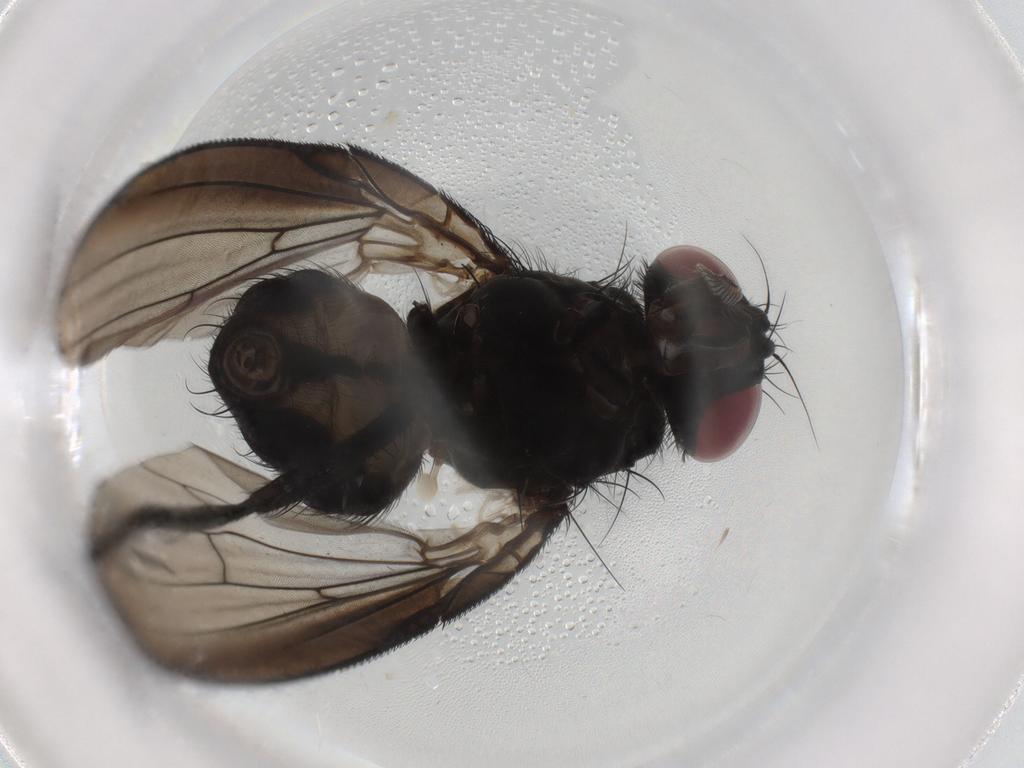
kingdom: Animalia
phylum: Arthropoda
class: Insecta
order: Diptera
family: Fannia
